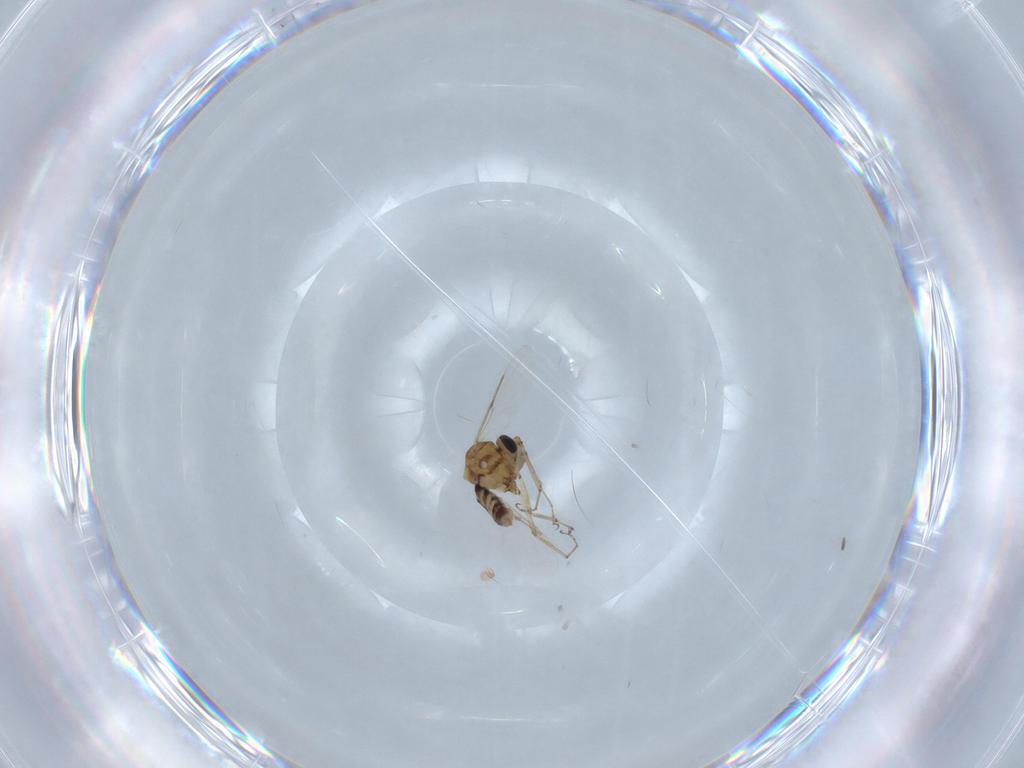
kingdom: Animalia
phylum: Arthropoda
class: Insecta
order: Diptera
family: Ceratopogonidae
